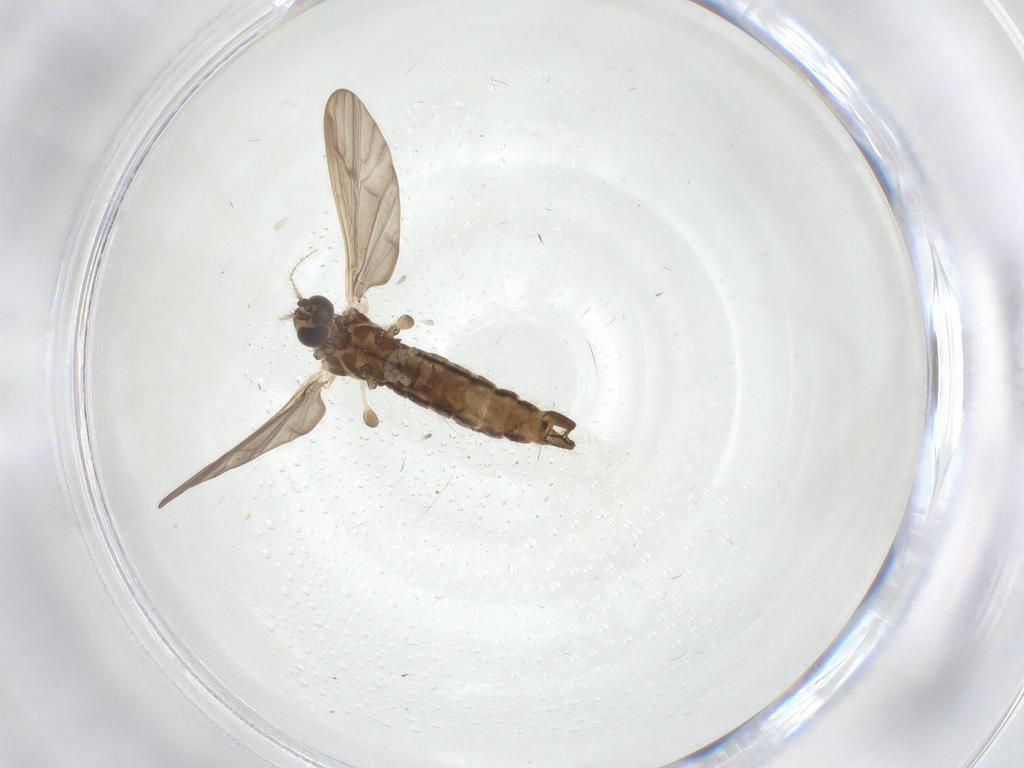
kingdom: Animalia
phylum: Arthropoda
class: Insecta
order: Diptera
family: Limoniidae
